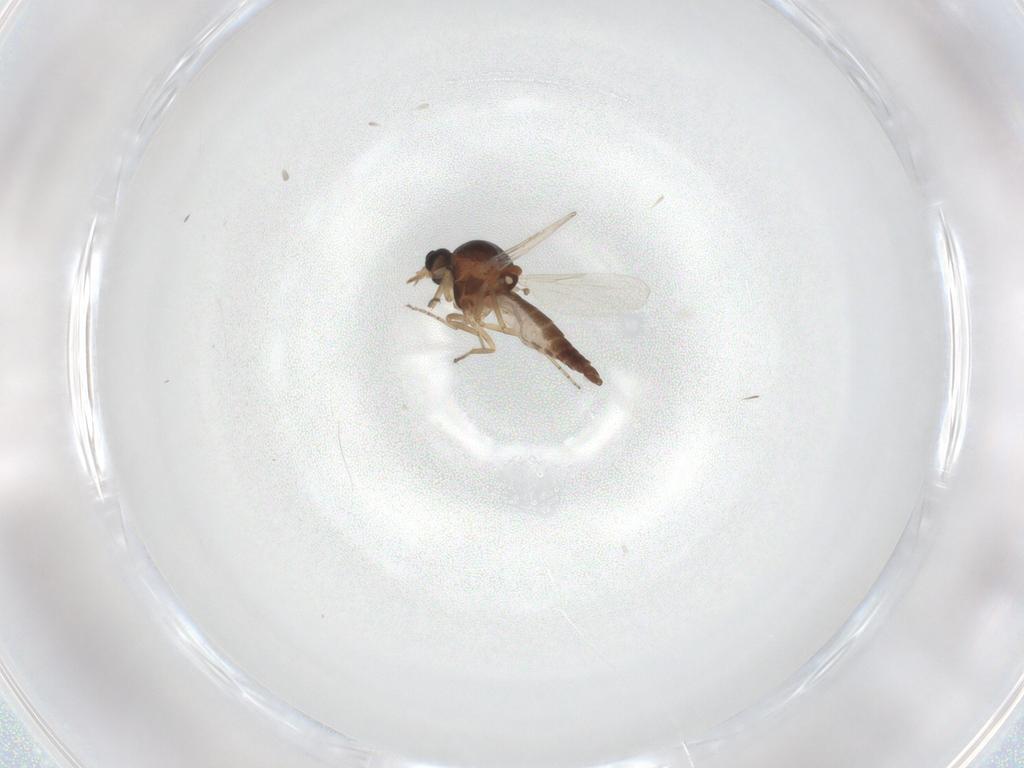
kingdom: Animalia
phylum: Arthropoda
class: Insecta
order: Diptera
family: Ceratopogonidae
